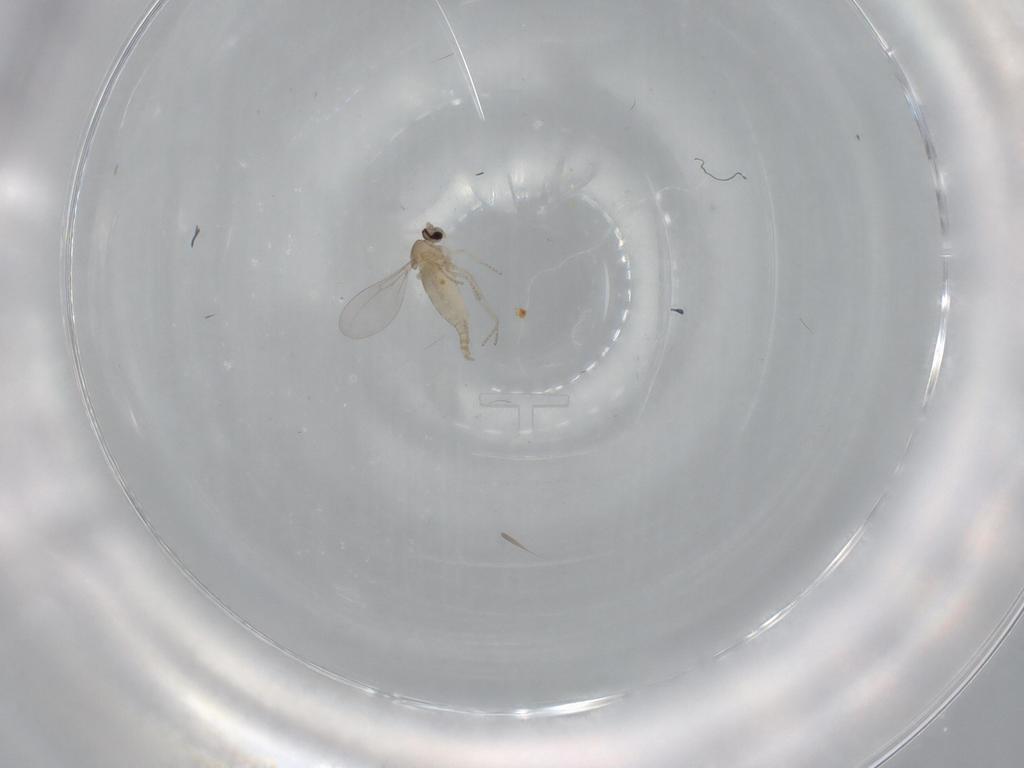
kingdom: Animalia
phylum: Arthropoda
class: Insecta
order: Diptera
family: Cecidomyiidae
